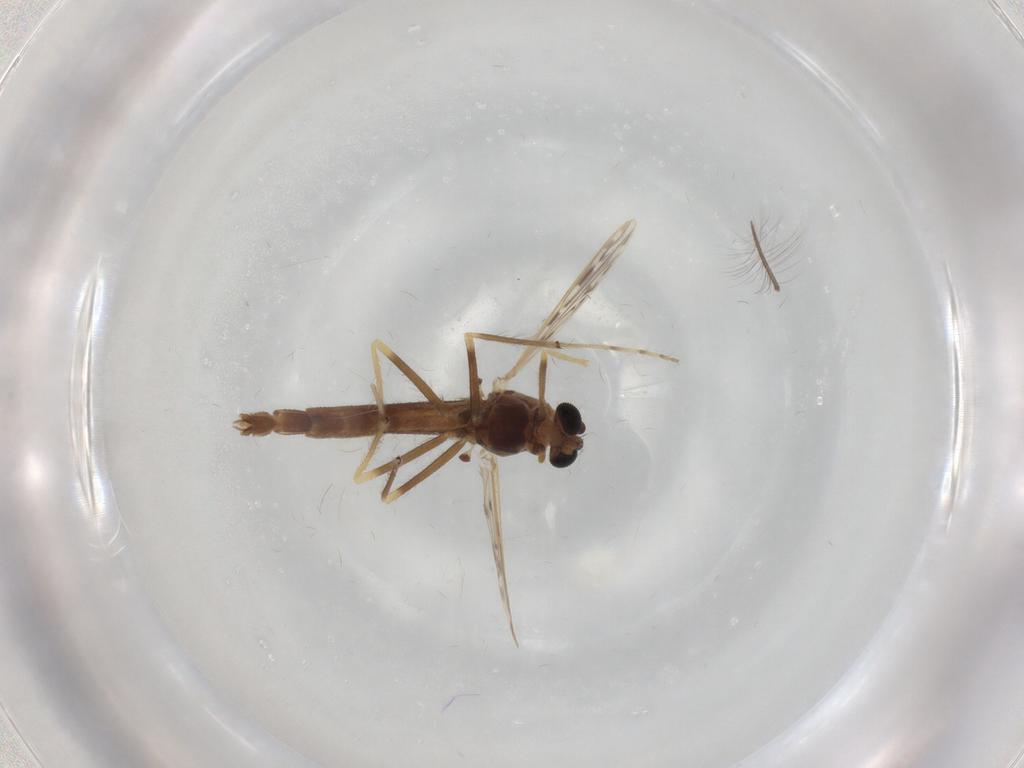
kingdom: Animalia
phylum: Arthropoda
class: Insecta
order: Diptera
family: Chironomidae
